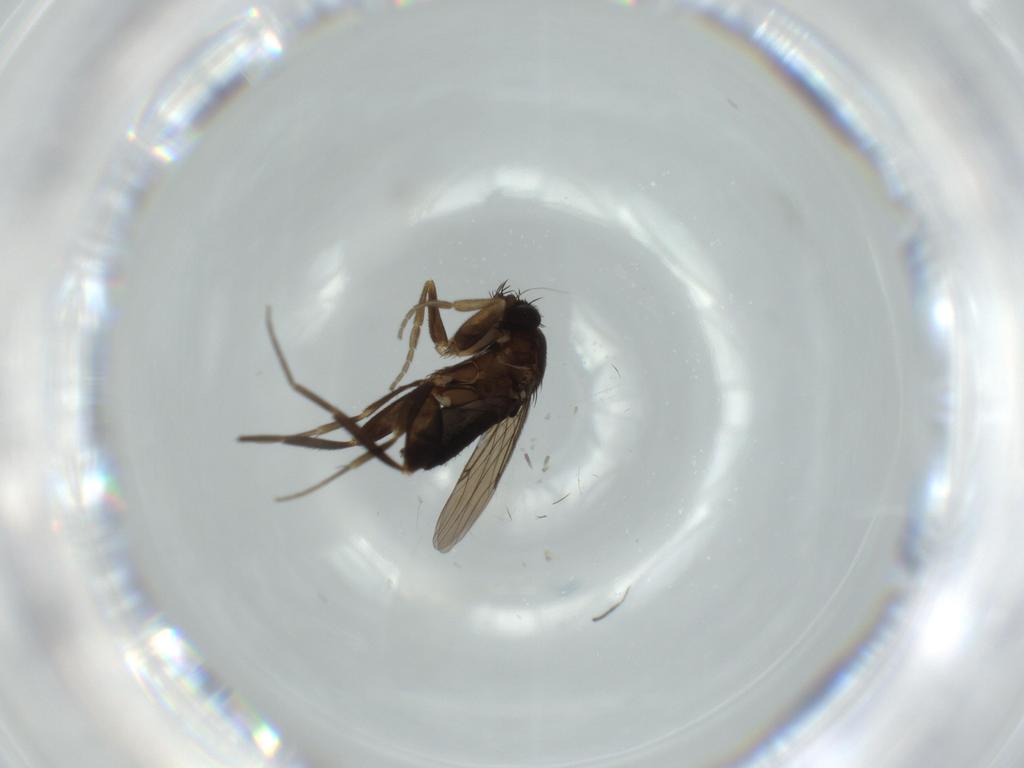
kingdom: Animalia
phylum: Arthropoda
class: Insecta
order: Diptera
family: Phoridae
